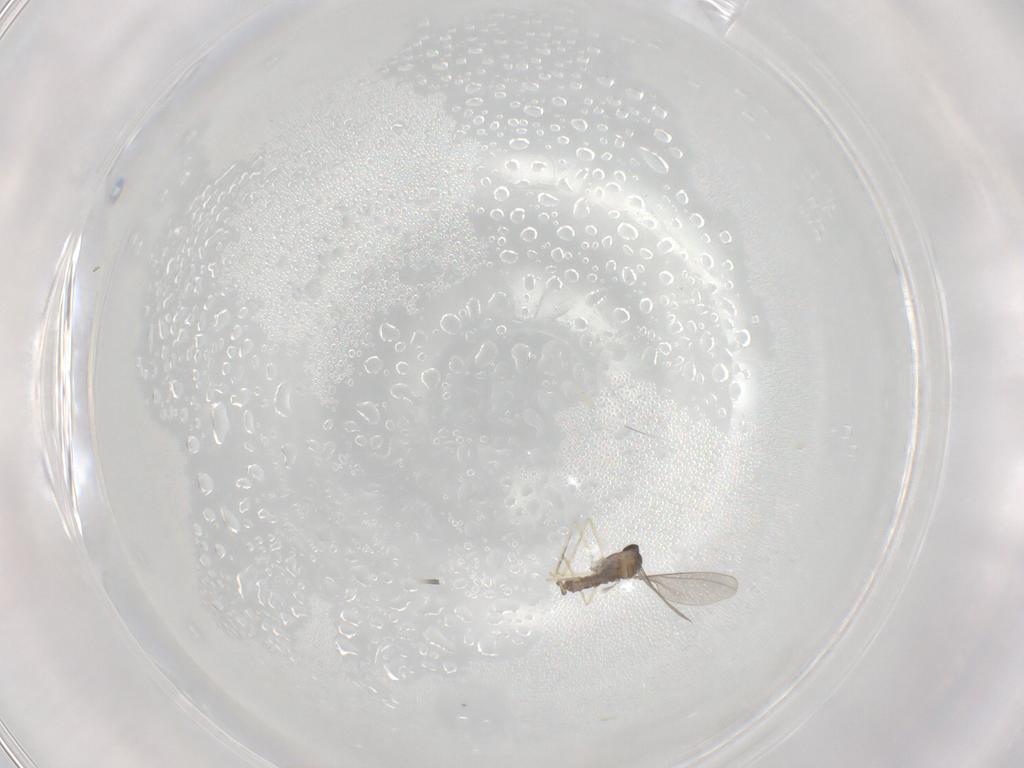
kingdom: Animalia
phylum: Arthropoda
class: Insecta
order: Diptera
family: Sphaeroceridae
